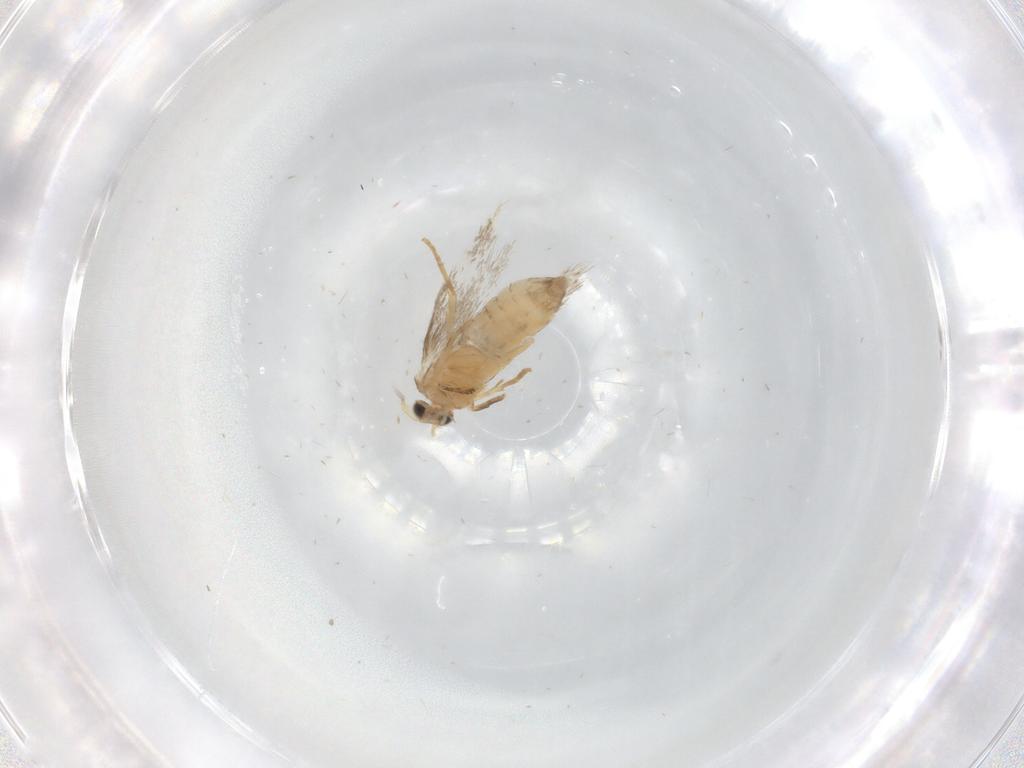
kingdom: Animalia
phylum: Arthropoda
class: Insecta
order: Lepidoptera
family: Nepticulidae
